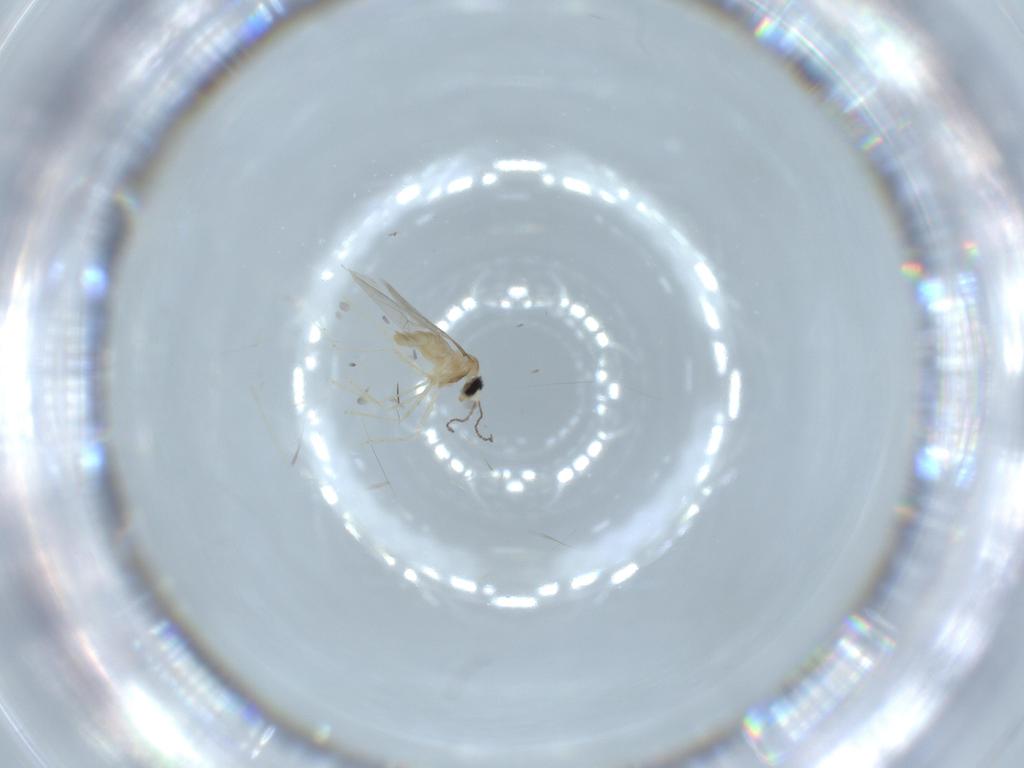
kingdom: Animalia
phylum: Arthropoda
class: Insecta
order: Diptera
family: Cecidomyiidae
